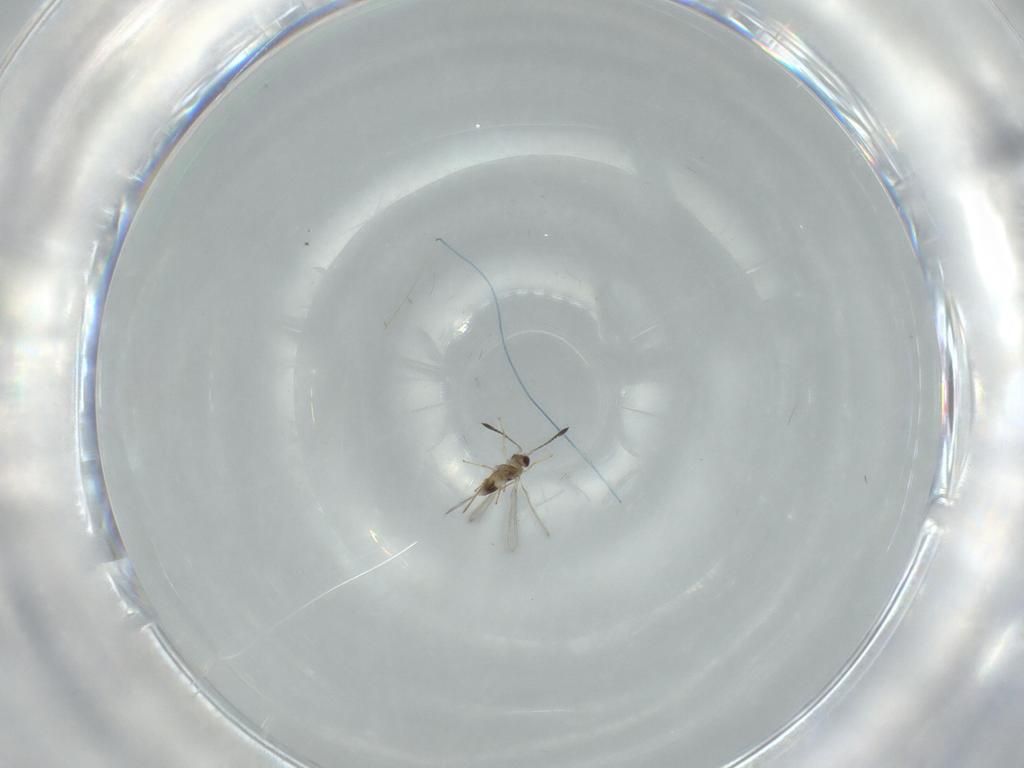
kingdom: Animalia
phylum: Arthropoda
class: Insecta
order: Hymenoptera
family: Mymaridae
